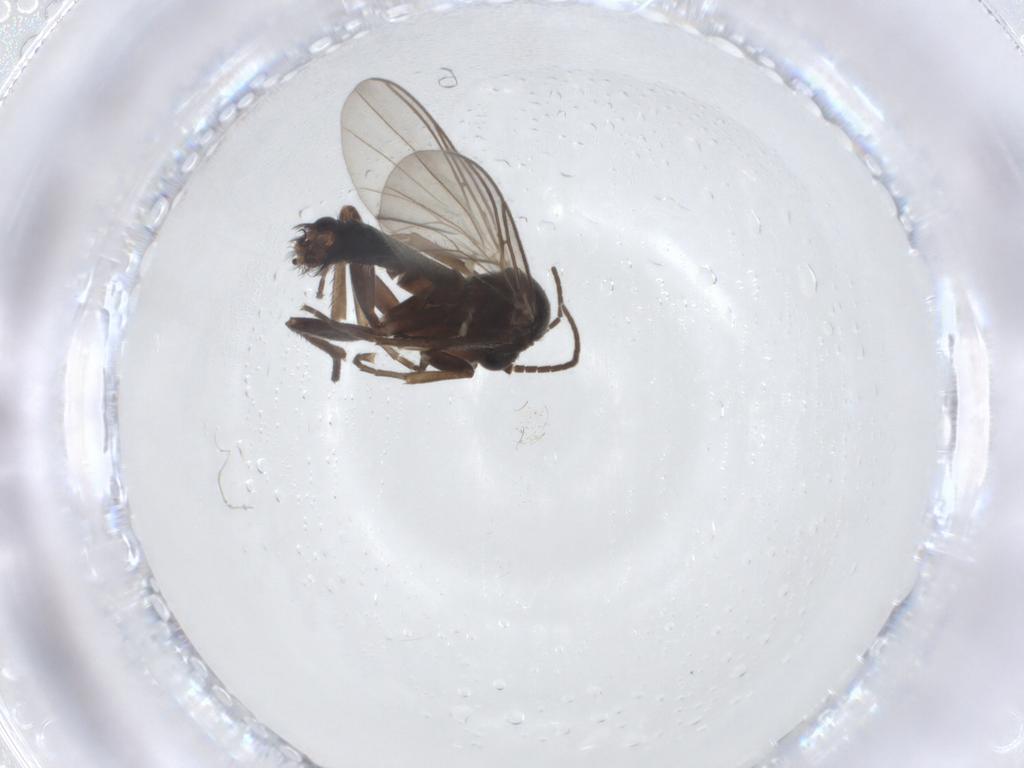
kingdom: Animalia
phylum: Arthropoda
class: Insecta
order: Diptera
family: Mycetophilidae
